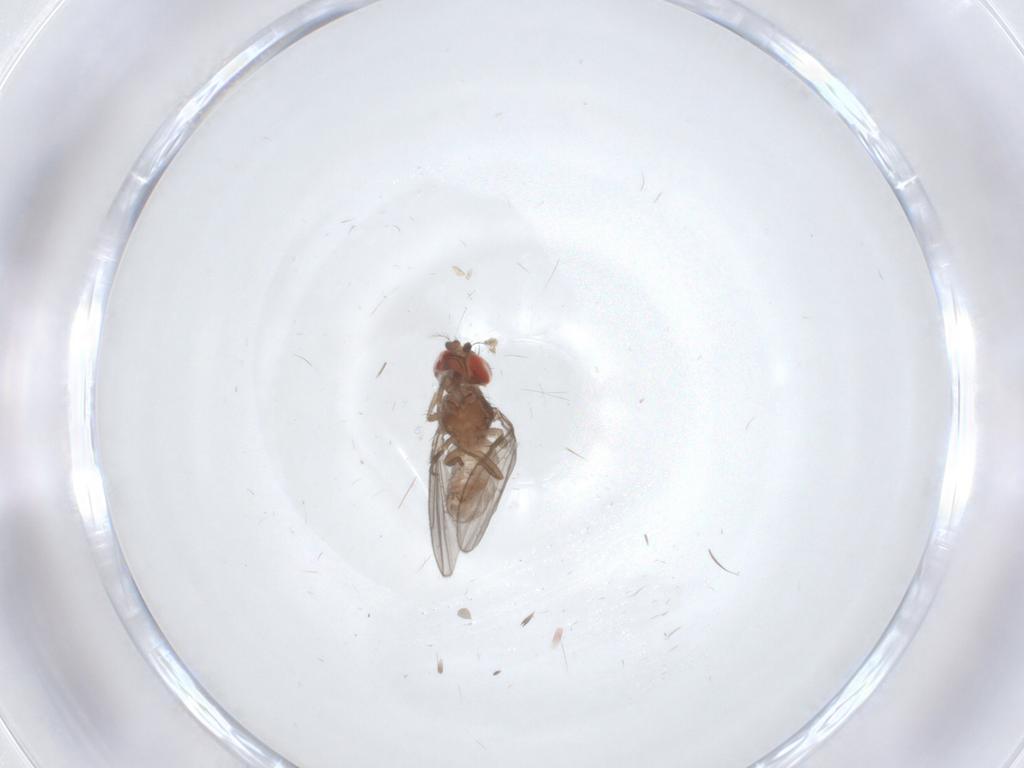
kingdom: Animalia
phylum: Arthropoda
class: Insecta
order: Diptera
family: Drosophilidae
